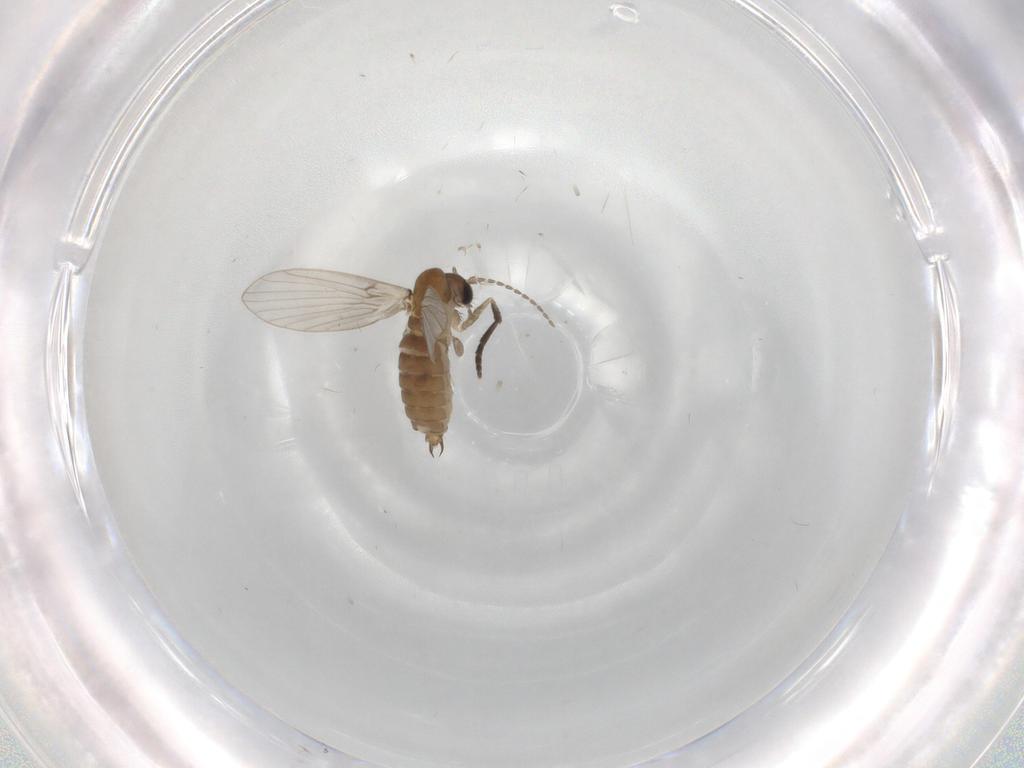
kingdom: Animalia
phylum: Arthropoda
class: Insecta
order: Diptera
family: Psychodidae
